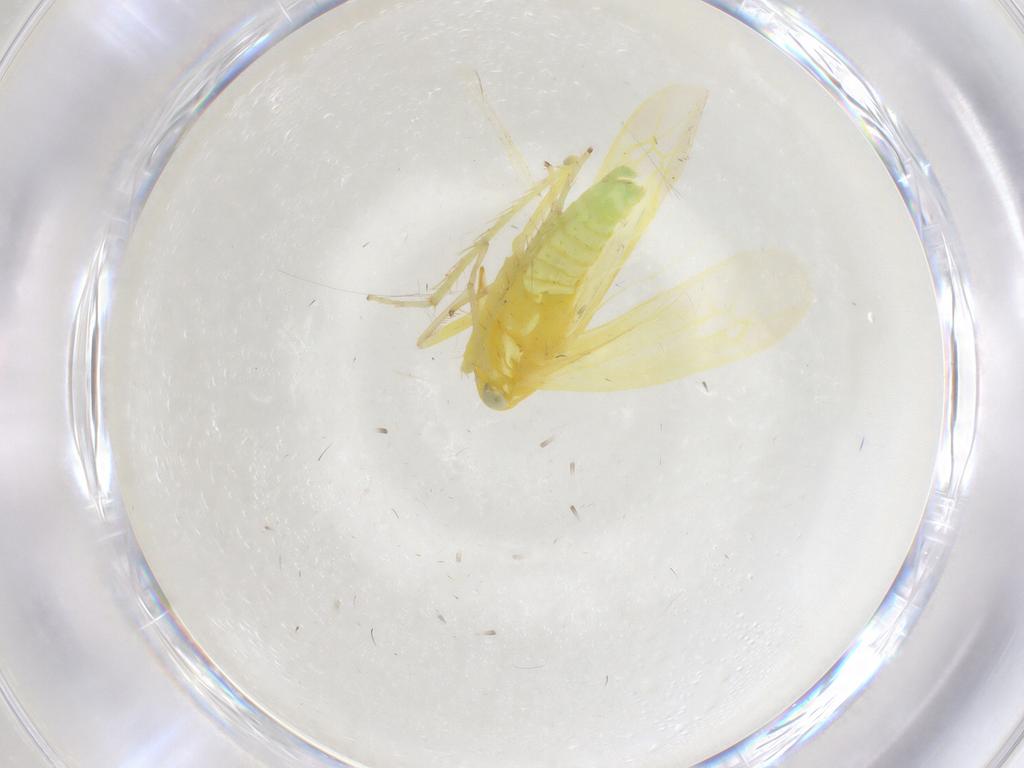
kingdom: Animalia
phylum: Arthropoda
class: Insecta
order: Hemiptera
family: Cicadellidae
